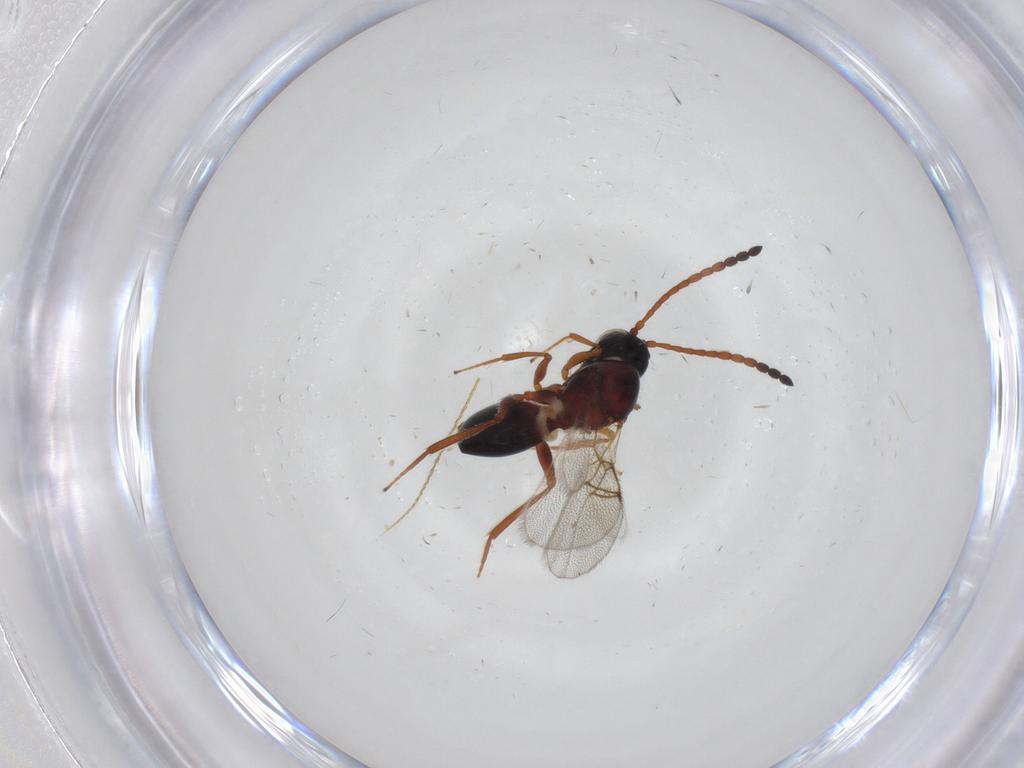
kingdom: Animalia
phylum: Arthropoda
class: Insecta
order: Hymenoptera
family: Figitidae
